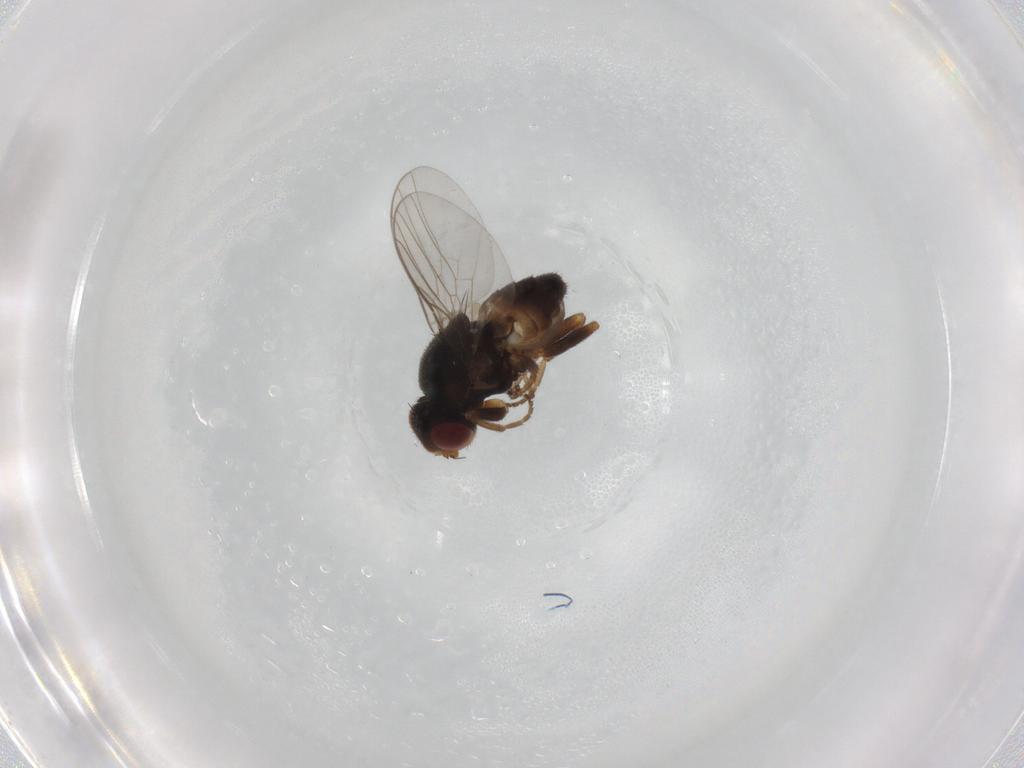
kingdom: Animalia
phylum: Arthropoda
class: Insecta
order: Diptera
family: Chloropidae
